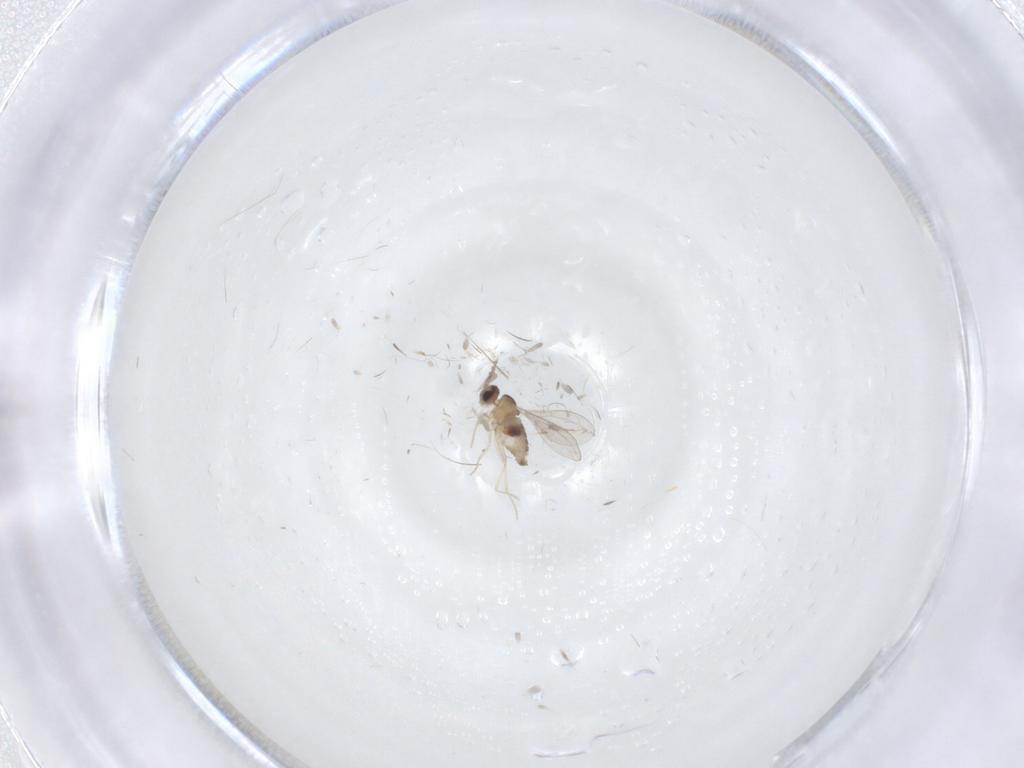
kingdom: Animalia
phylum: Arthropoda
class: Insecta
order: Diptera
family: Cecidomyiidae
